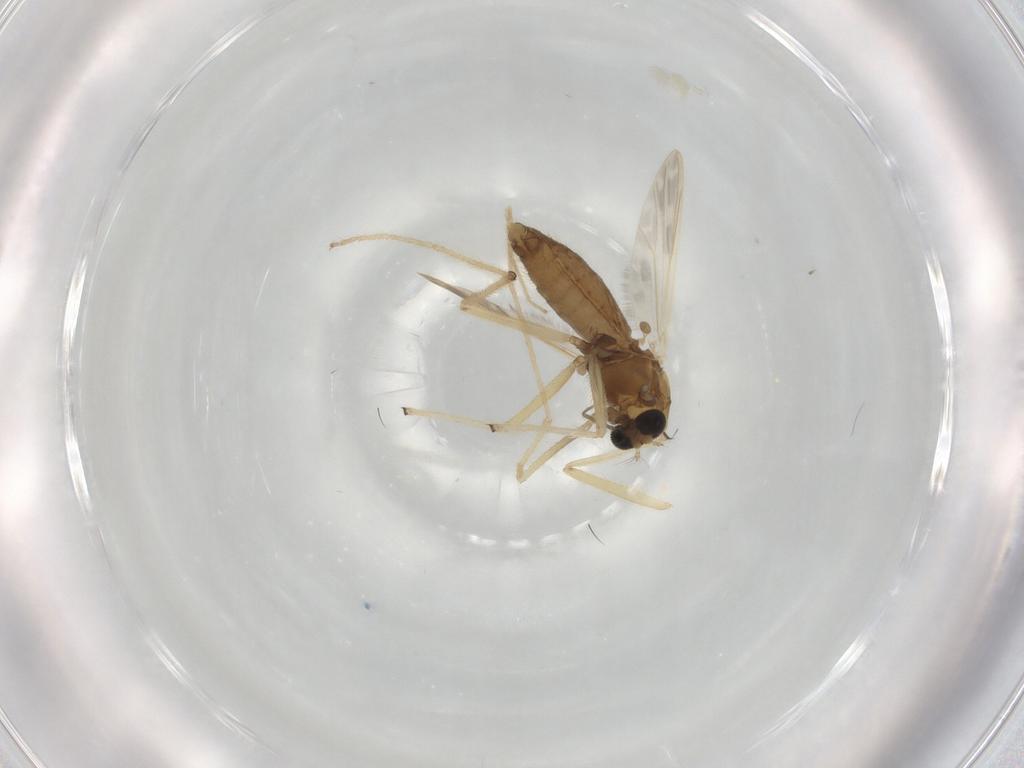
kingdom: Animalia
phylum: Arthropoda
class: Insecta
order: Diptera
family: Chironomidae
